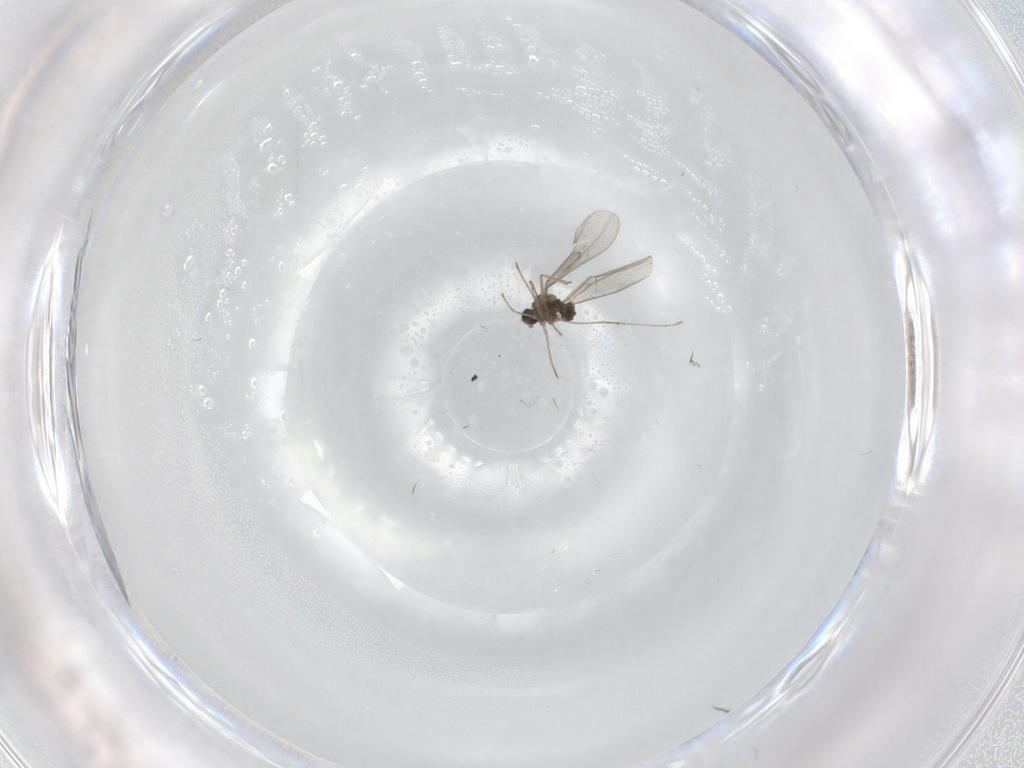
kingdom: Animalia
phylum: Arthropoda
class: Insecta
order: Diptera
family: Cecidomyiidae
